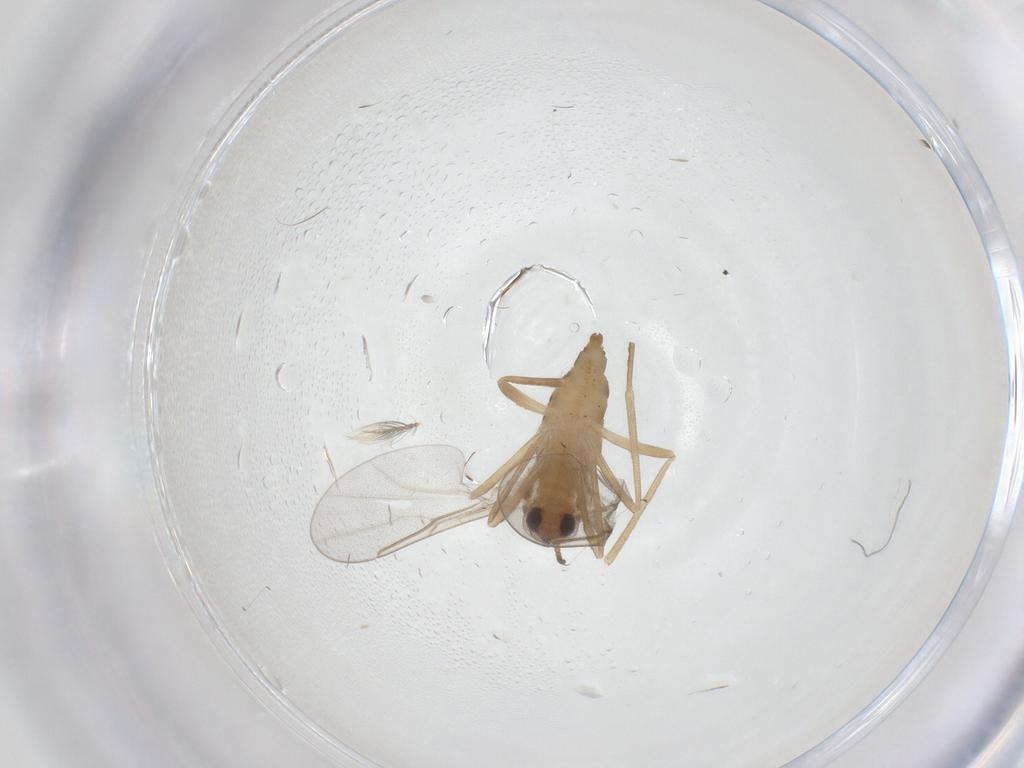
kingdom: Animalia
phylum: Arthropoda
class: Insecta
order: Diptera
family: Cecidomyiidae
